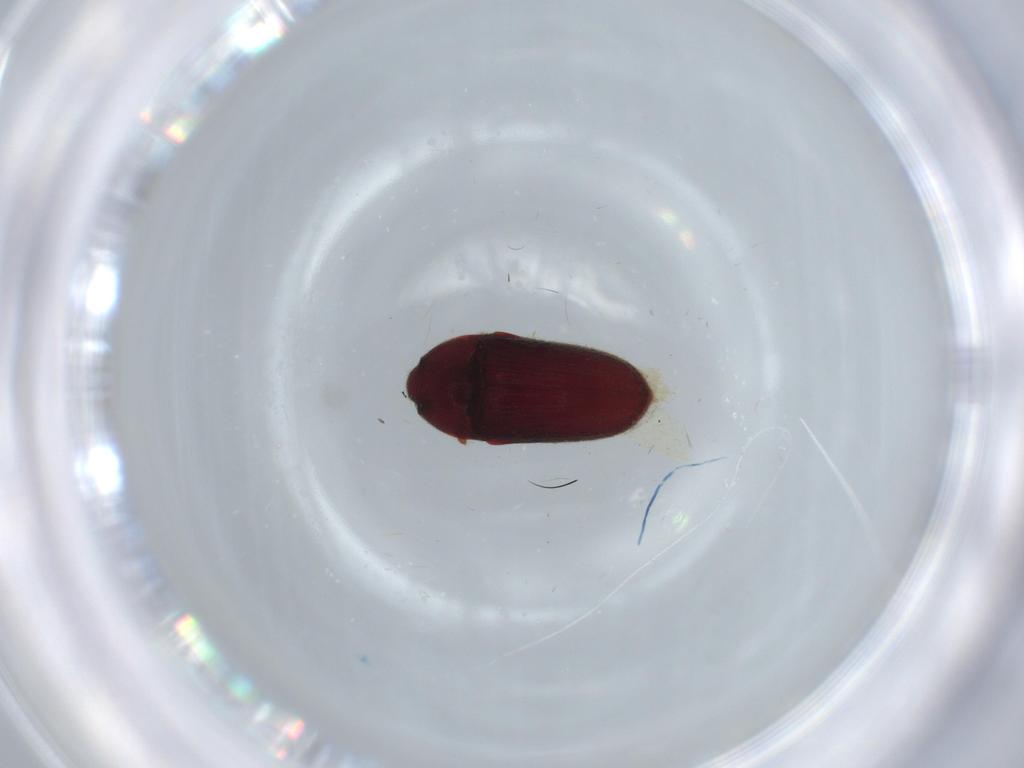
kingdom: Animalia
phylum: Arthropoda
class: Insecta
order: Coleoptera
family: Throscidae
